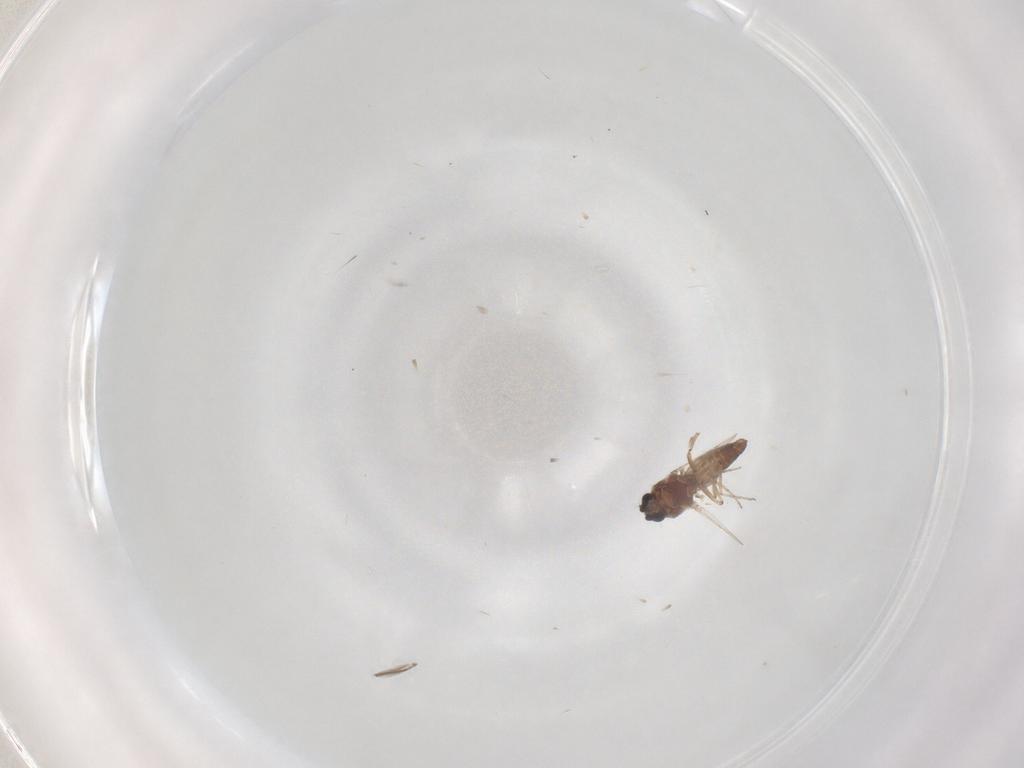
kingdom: Animalia
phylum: Arthropoda
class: Insecta
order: Diptera
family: Ceratopogonidae
